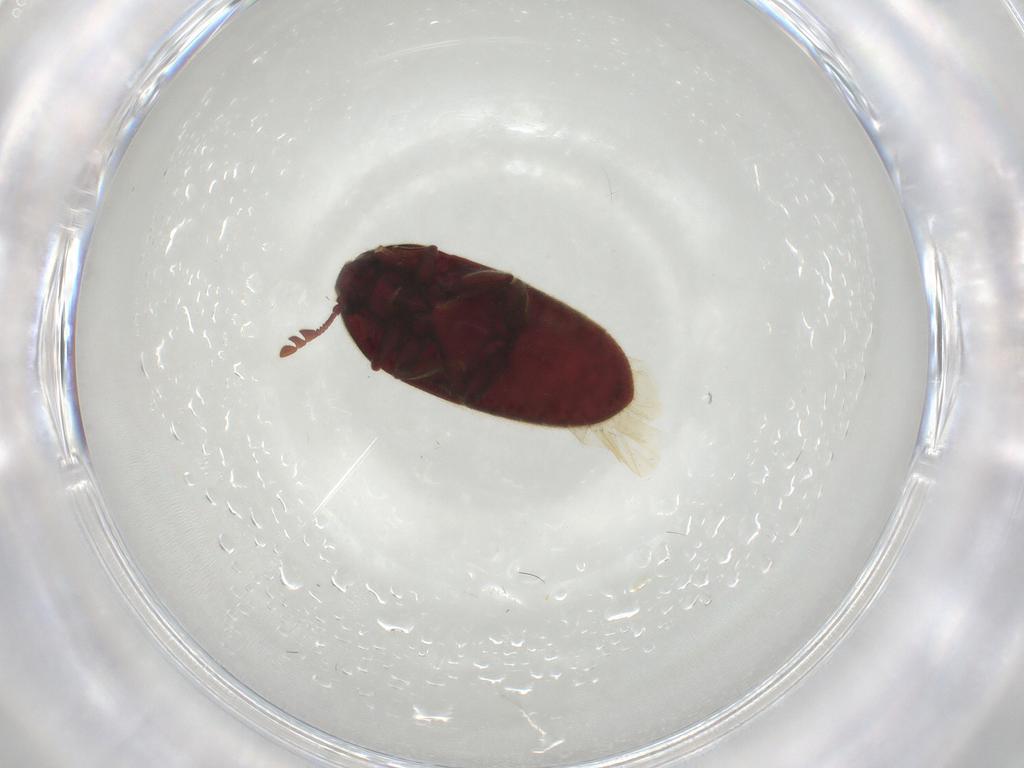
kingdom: Animalia
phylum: Arthropoda
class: Insecta
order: Coleoptera
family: Throscidae
